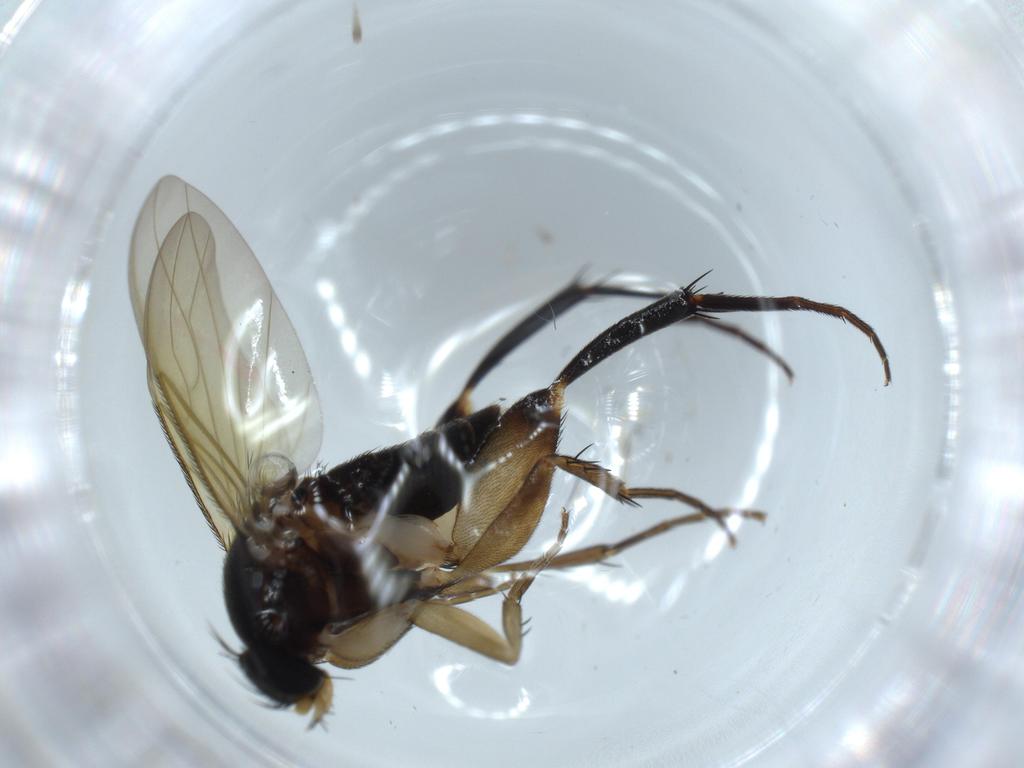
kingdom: Animalia
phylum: Arthropoda
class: Insecta
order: Diptera
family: Phoridae
